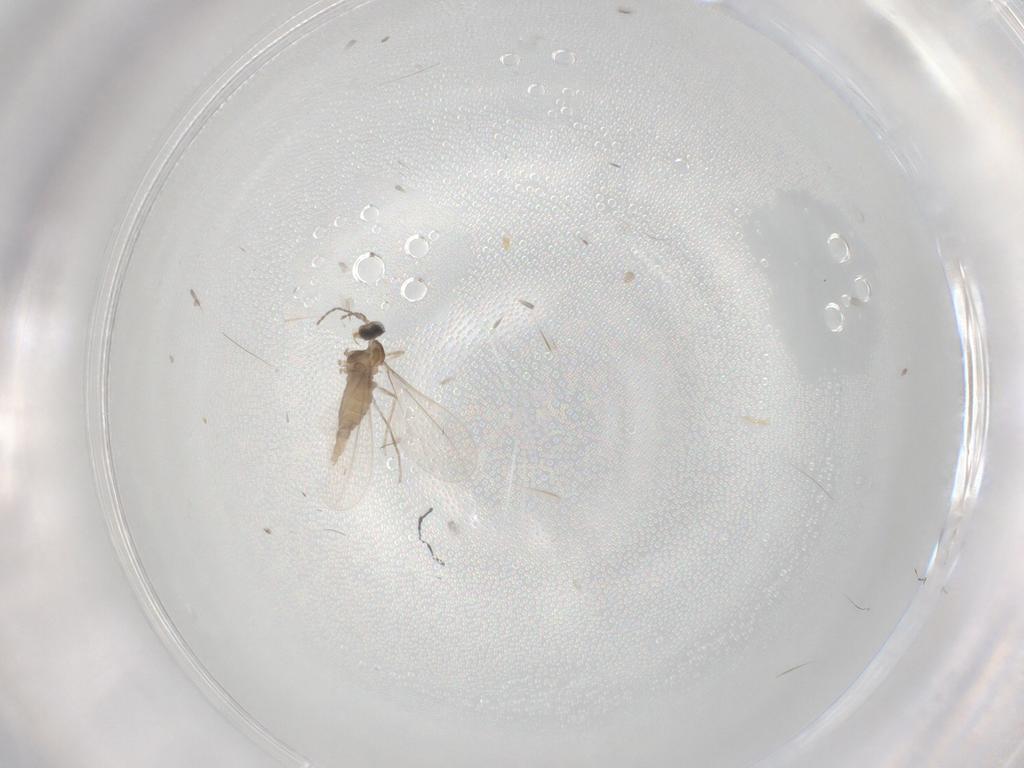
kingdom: Animalia
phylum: Arthropoda
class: Insecta
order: Diptera
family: Cecidomyiidae
